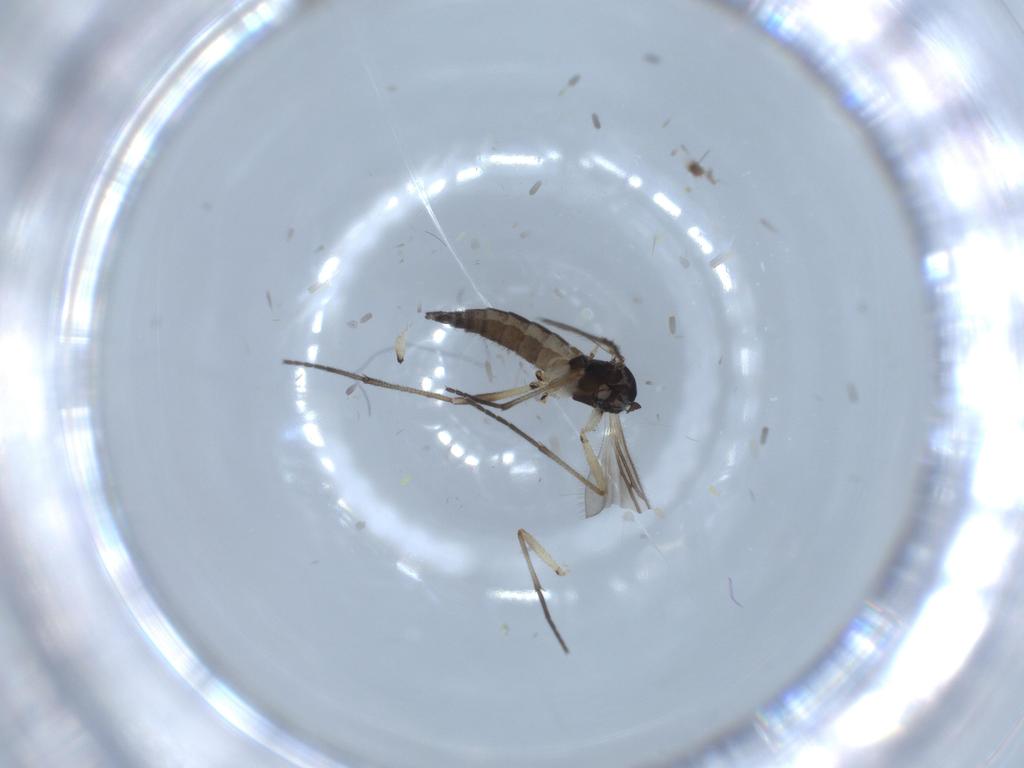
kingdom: Animalia
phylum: Arthropoda
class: Insecta
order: Diptera
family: Sciaridae
